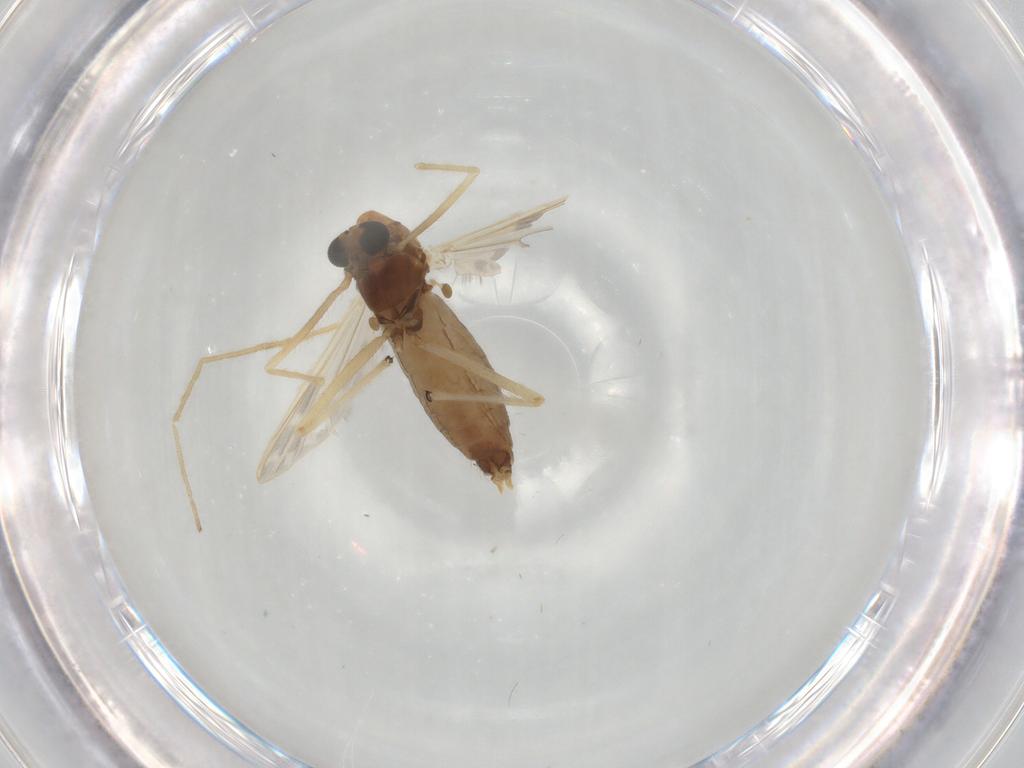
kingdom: Animalia
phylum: Arthropoda
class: Insecta
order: Diptera
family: Chironomidae
